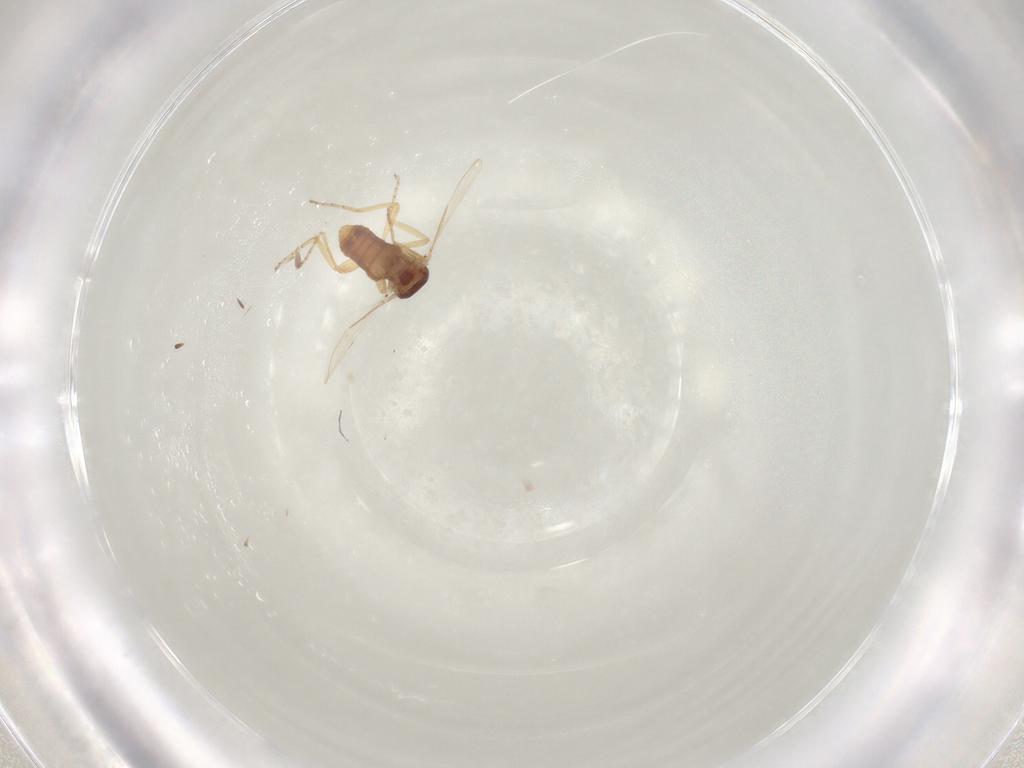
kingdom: Animalia
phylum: Arthropoda
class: Insecta
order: Diptera
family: Ceratopogonidae
